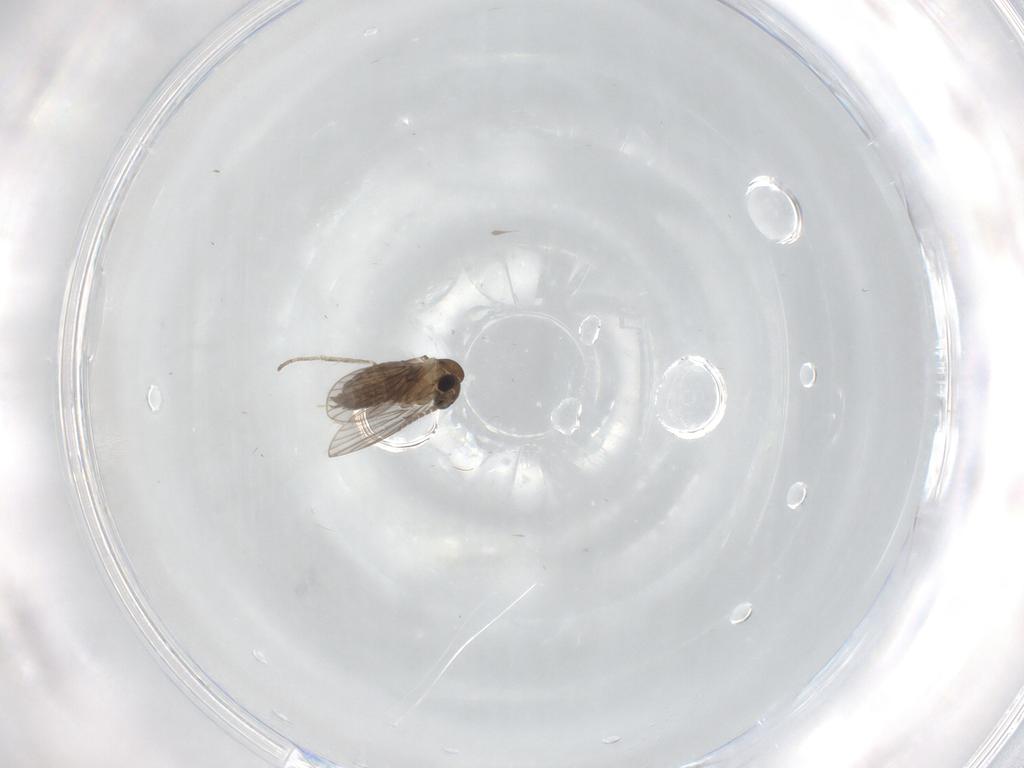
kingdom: Animalia
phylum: Arthropoda
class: Insecta
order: Diptera
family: Psychodidae
